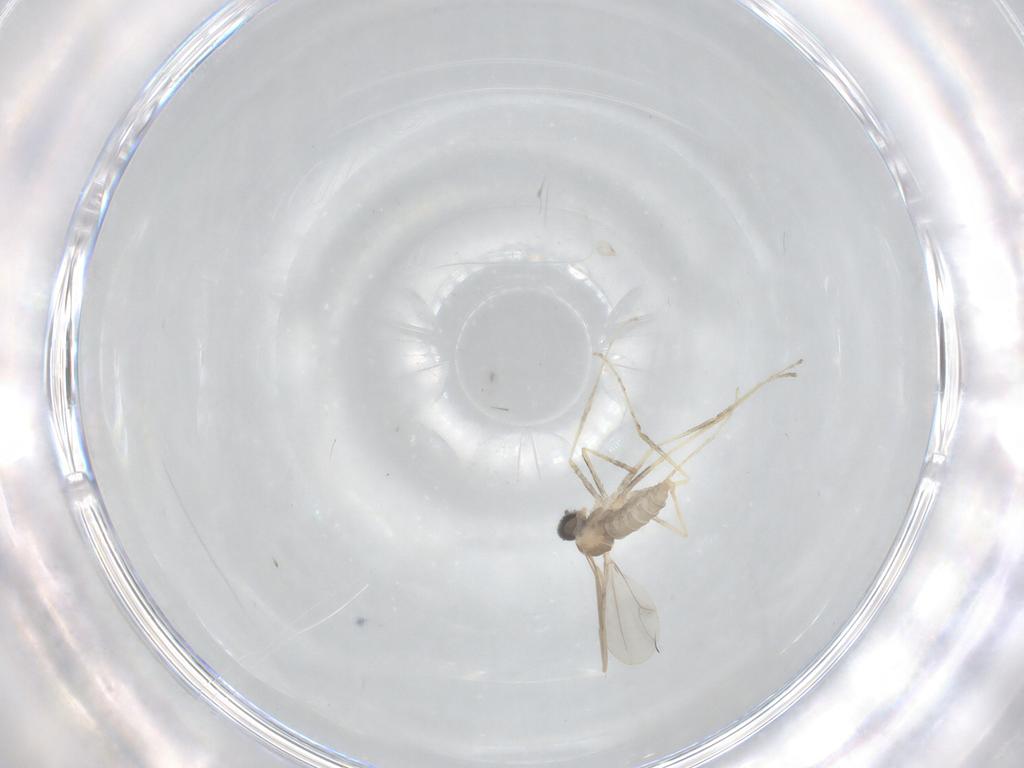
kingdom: Animalia
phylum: Arthropoda
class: Insecta
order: Diptera
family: Cecidomyiidae
